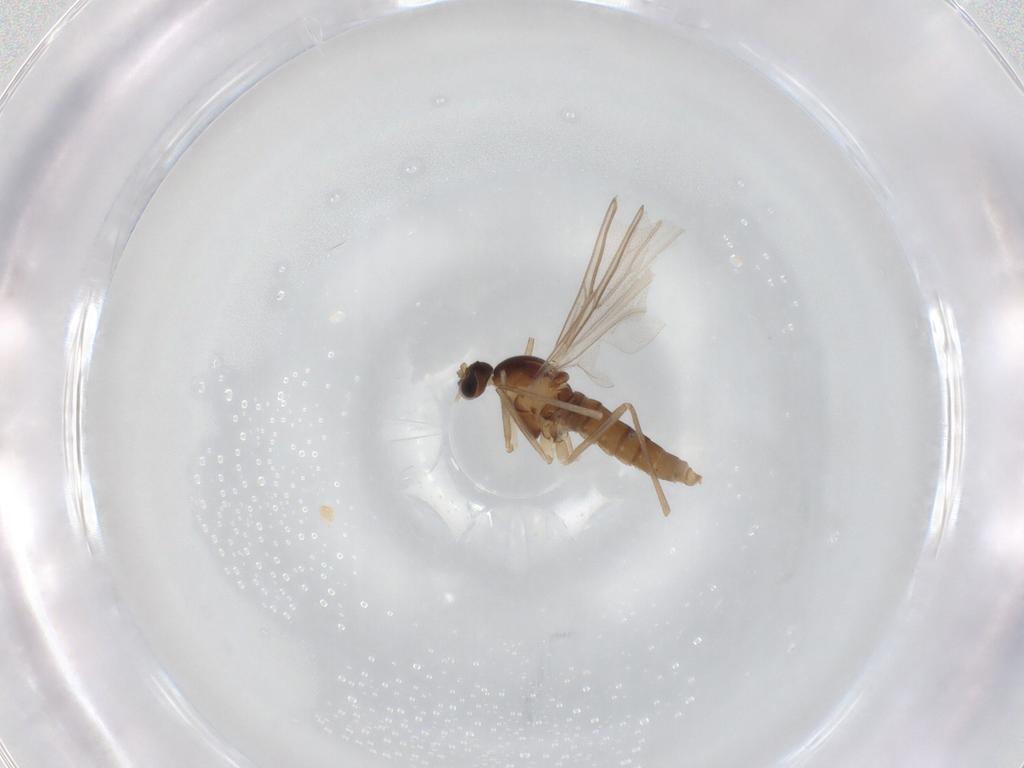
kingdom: Animalia
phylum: Arthropoda
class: Insecta
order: Diptera
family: Cecidomyiidae
